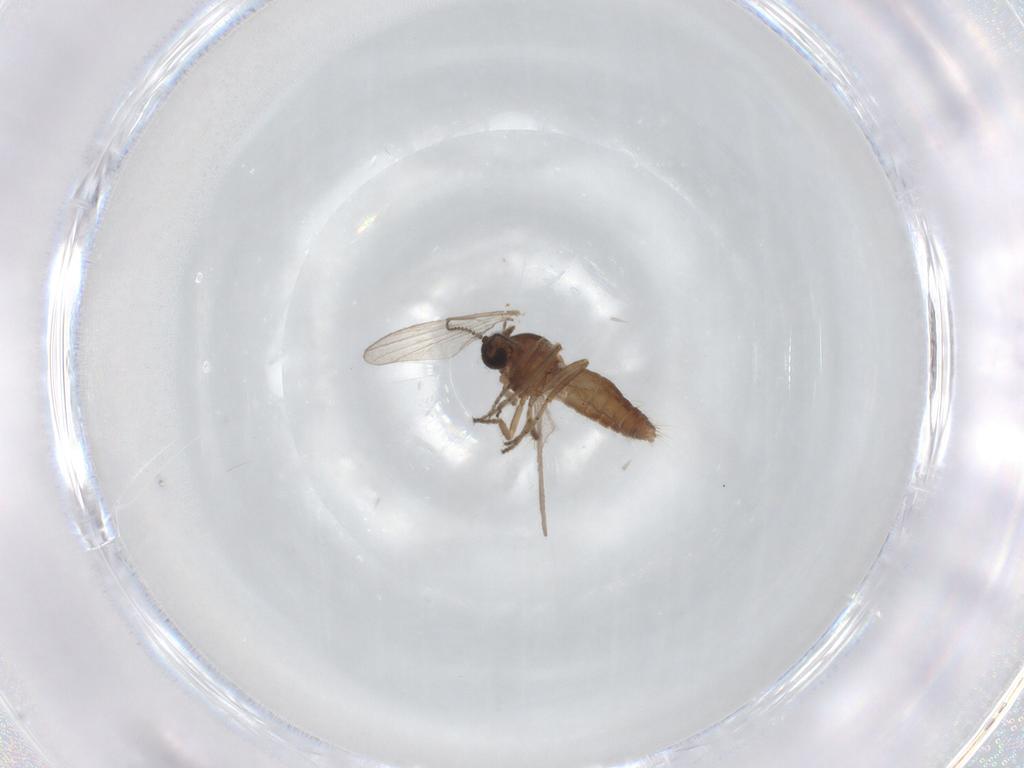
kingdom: Animalia
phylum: Arthropoda
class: Insecta
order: Diptera
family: Ceratopogonidae
